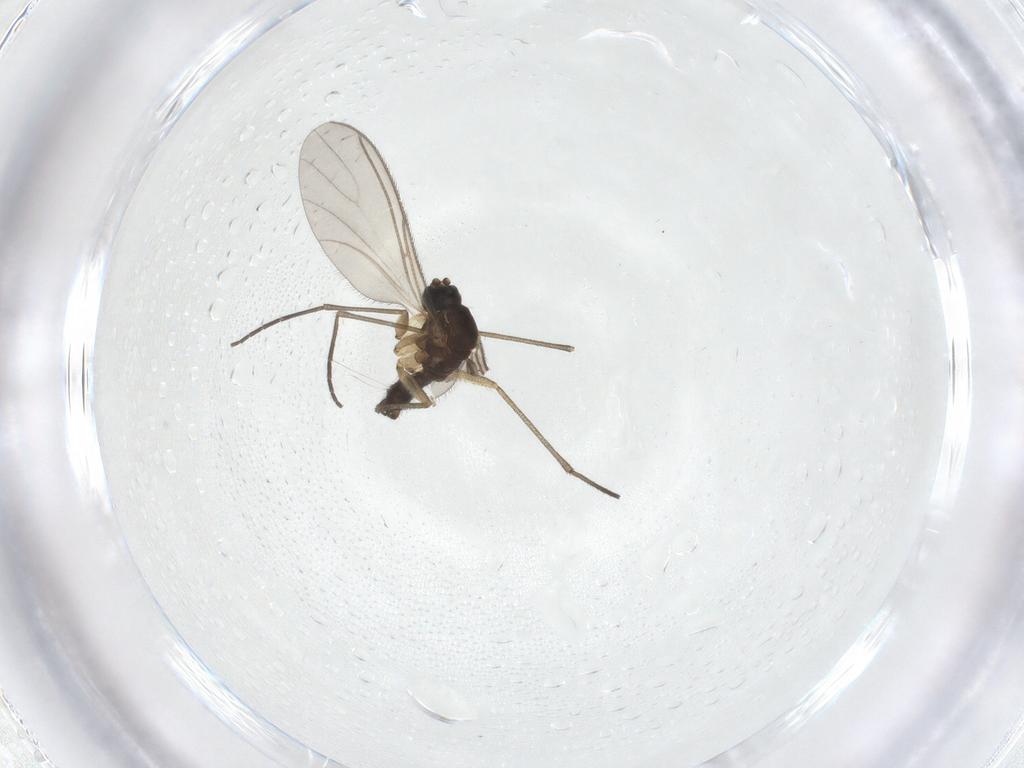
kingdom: Animalia
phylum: Arthropoda
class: Insecta
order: Diptera
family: Sciaridae
